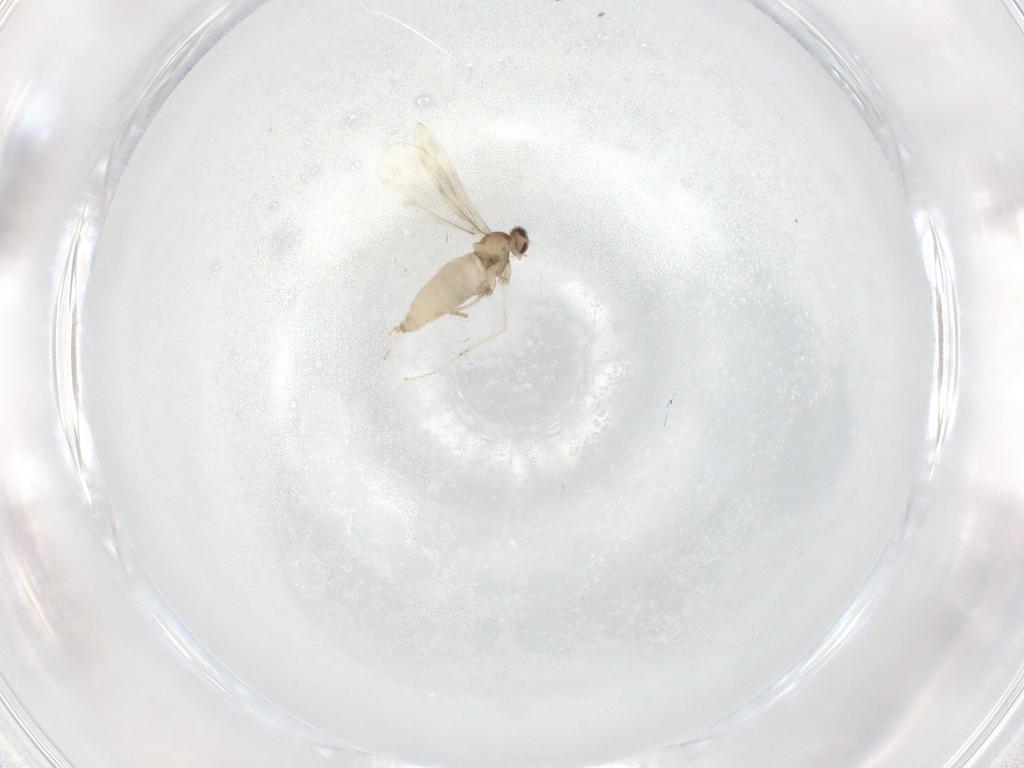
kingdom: Animalia
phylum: Arthropoda
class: Insecta
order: Diptera
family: Cecidomyiidae
